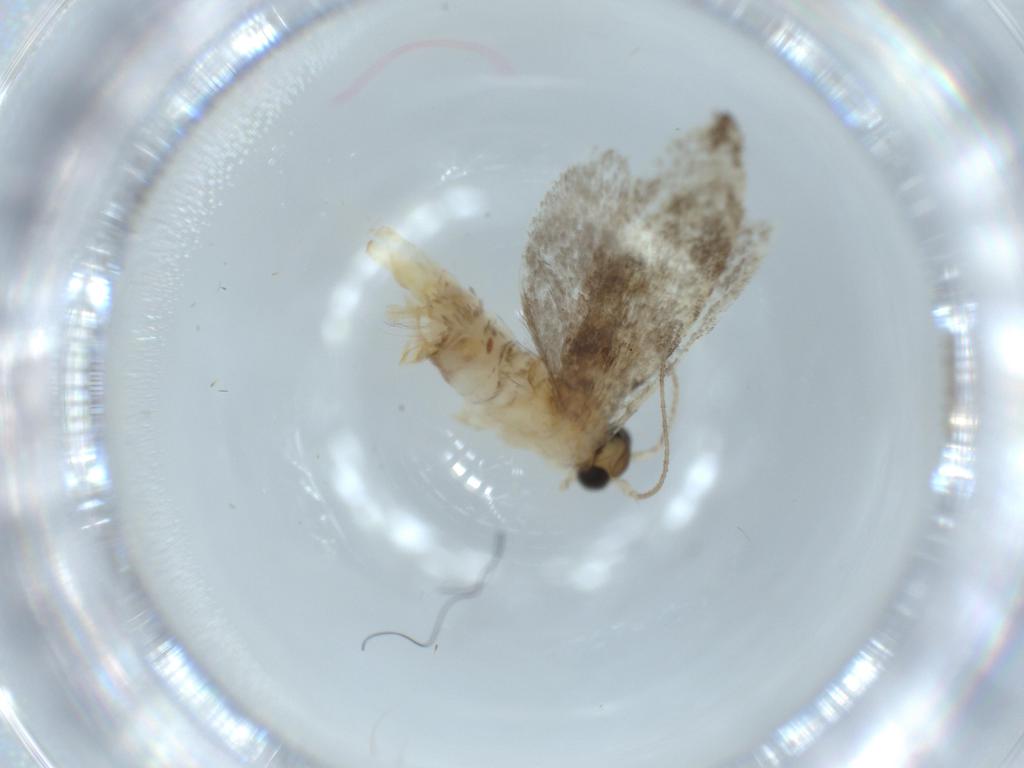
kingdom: Animalia
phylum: Arthropoda
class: Insecta
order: Lepidoptera
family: Tineidae
